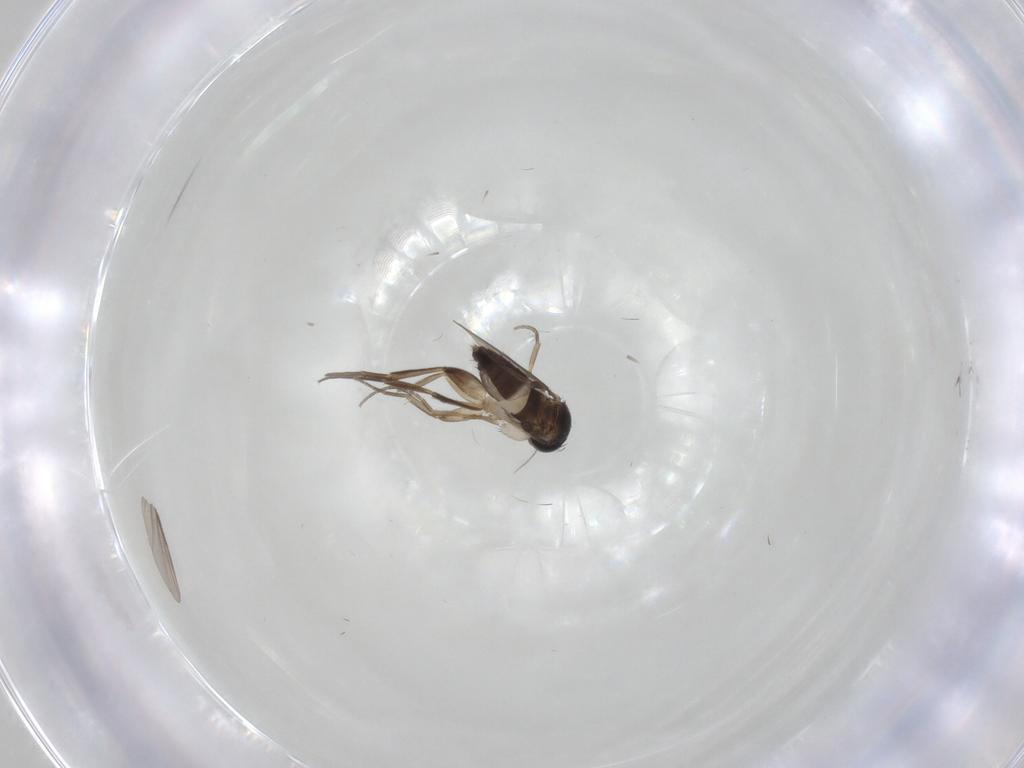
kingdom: Animalia
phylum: Arthropoda
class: Insecta
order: Diptera
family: Phoridae
